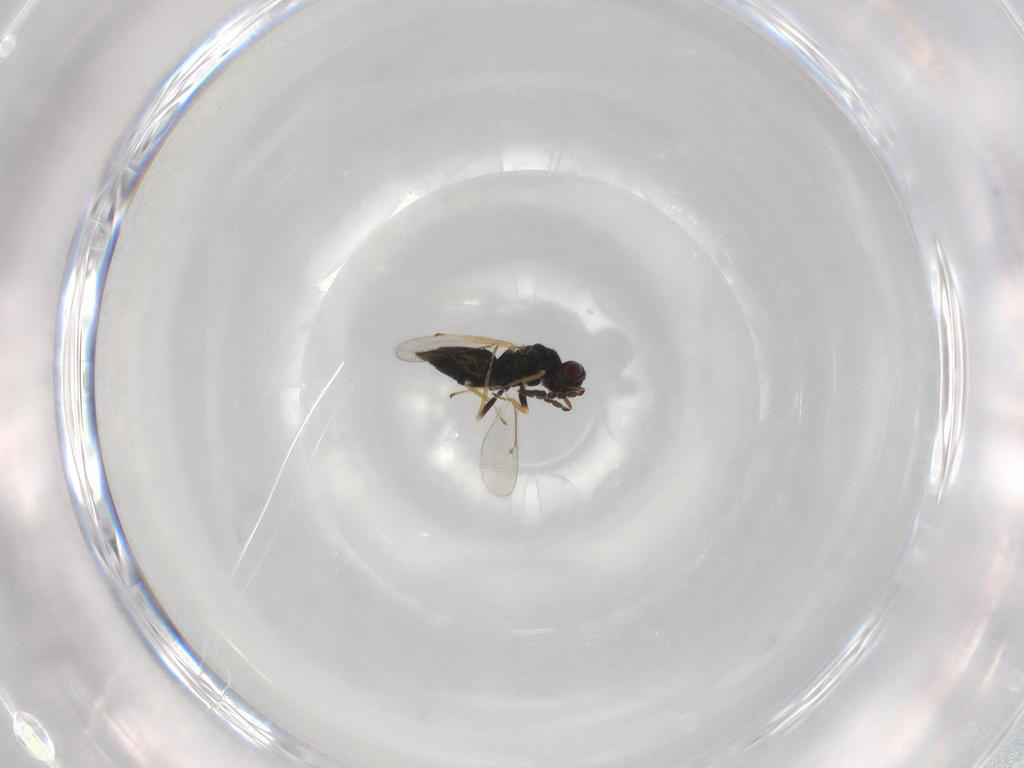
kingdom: Animalia
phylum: Arthropoda
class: Insecta
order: Hymenoptera
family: Eulophidae
